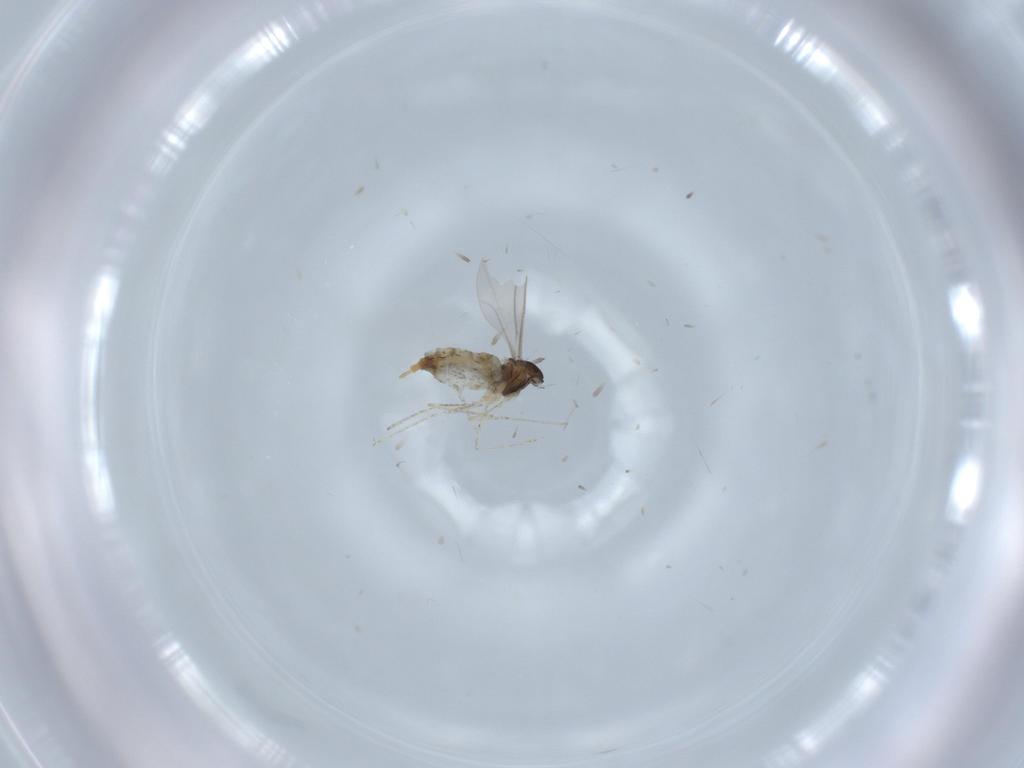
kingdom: Animalia
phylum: Arthropoda
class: Insecta
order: Diptera
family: Cecidomyiidae
